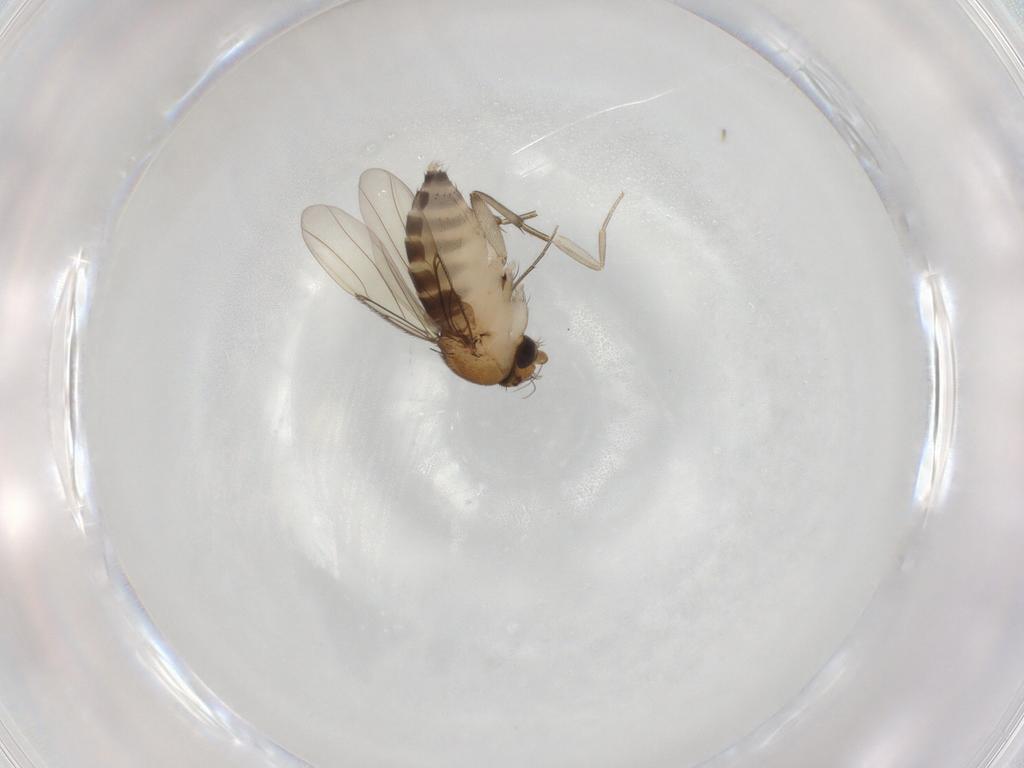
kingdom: Animalia
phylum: Arthropoda
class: Insecta
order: Diptera
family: Phoridae
